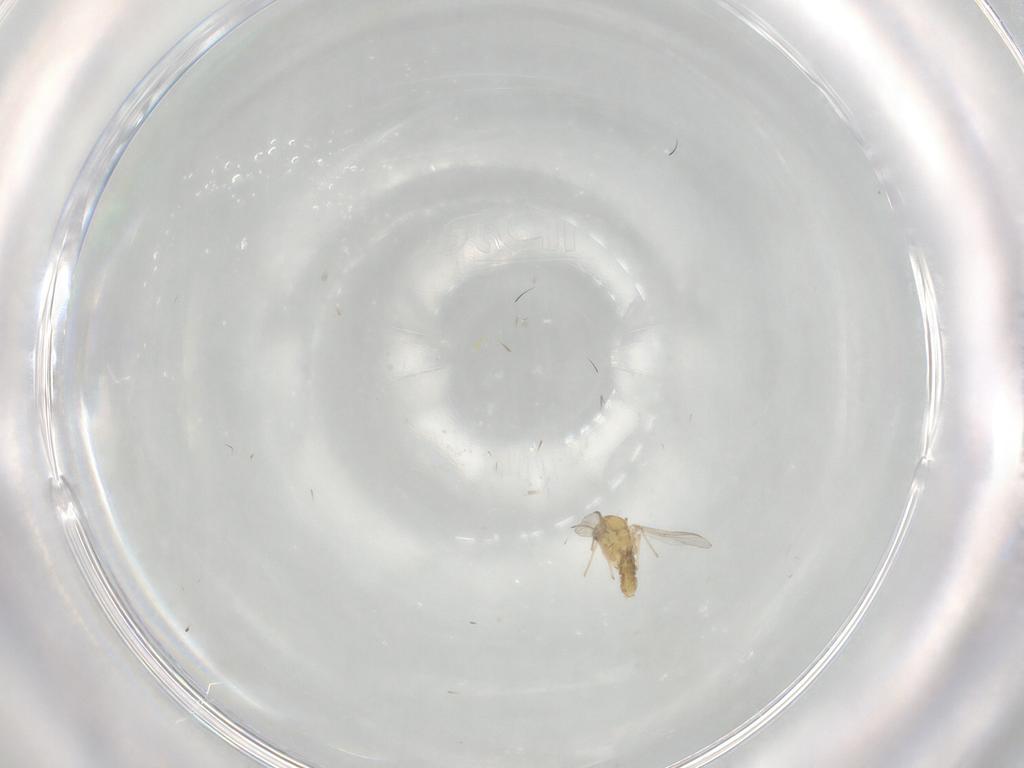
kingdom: Animalia
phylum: Arthropoda
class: Insecta
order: Diptera
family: Chironomidae
